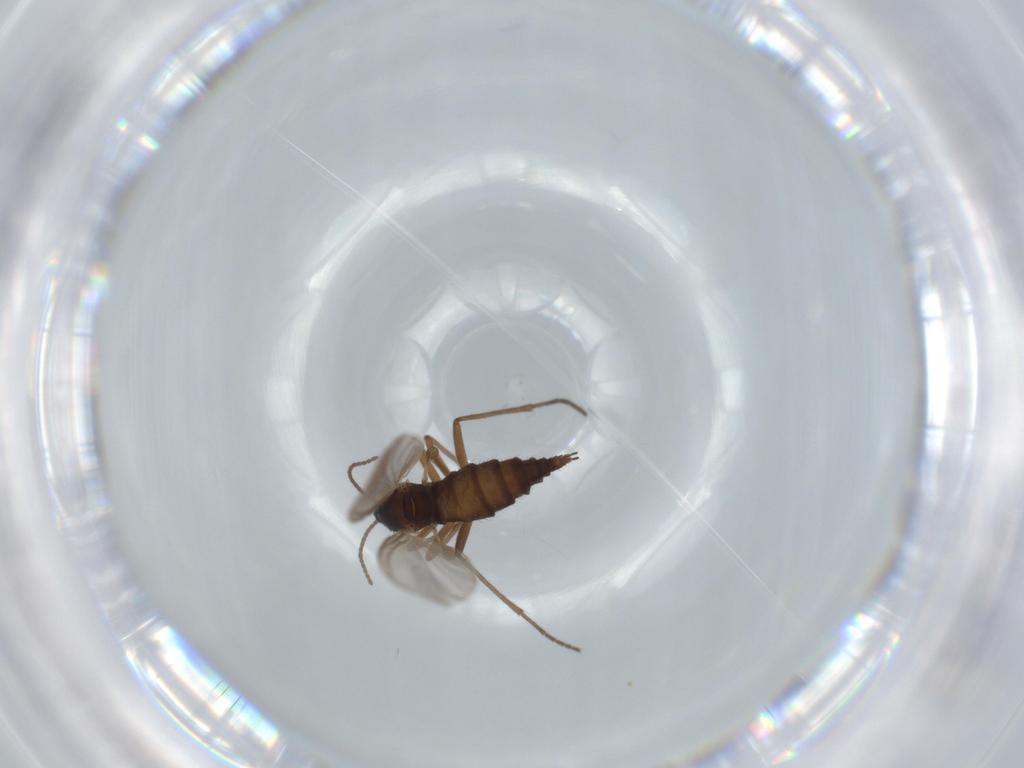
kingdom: Animalia
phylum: Arthropoda
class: Insecta
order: Diptera
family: Sciaridae
